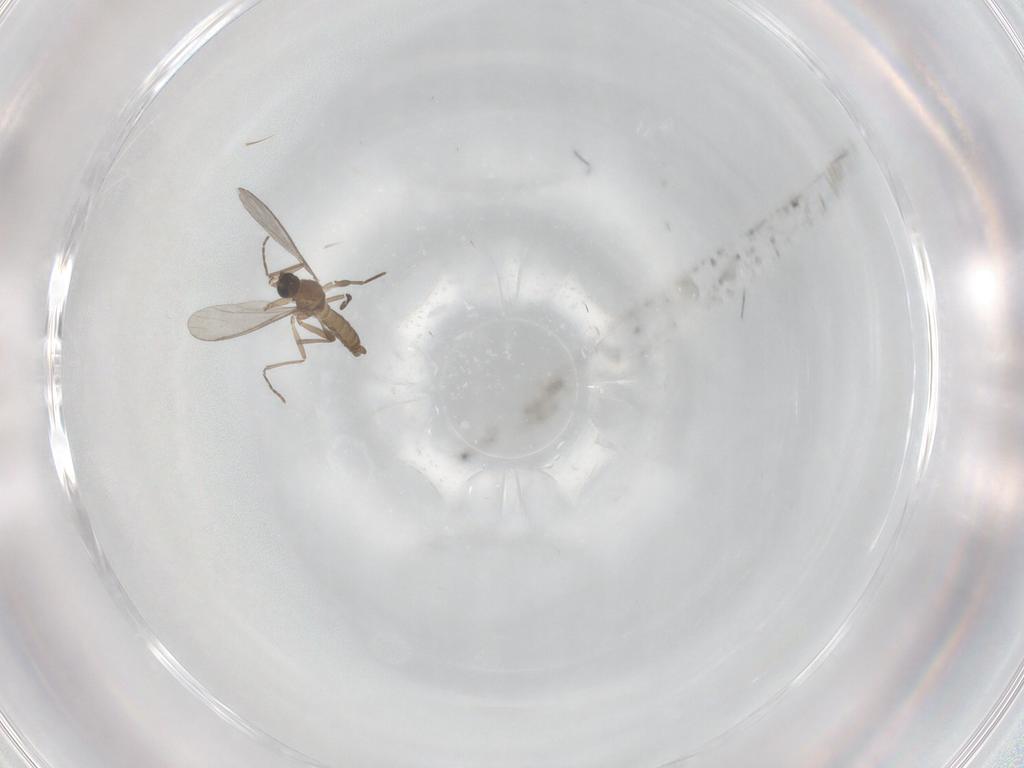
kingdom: Animalia
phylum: Arthropoda
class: Insecta
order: Diptera
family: Sciaridae
